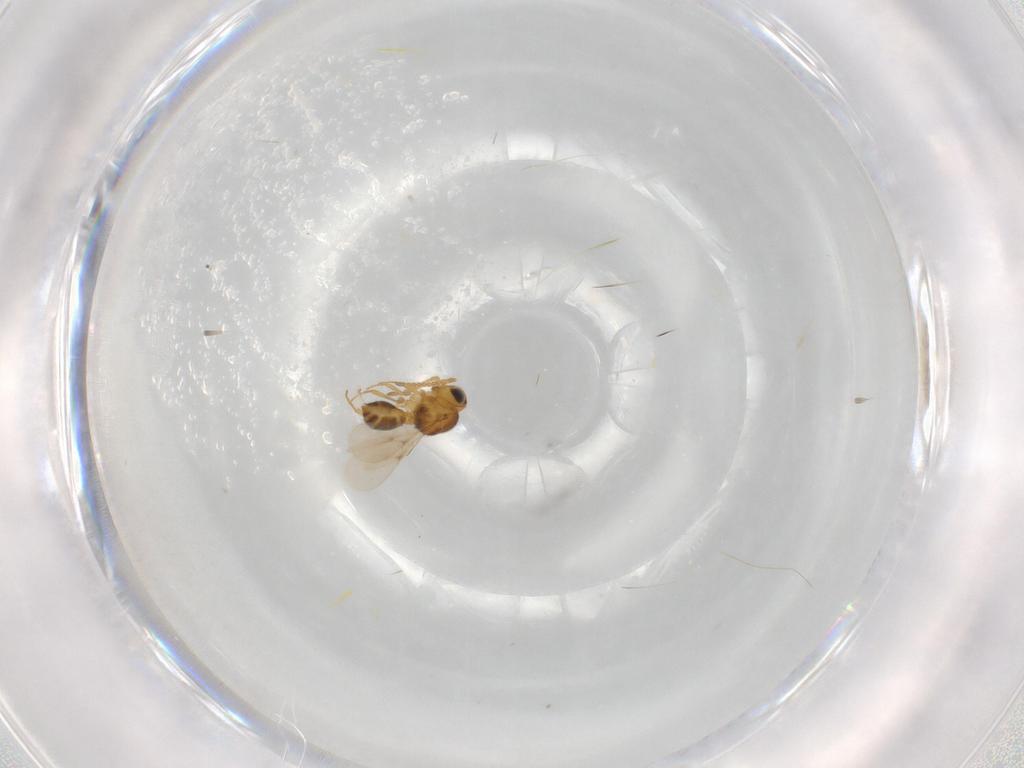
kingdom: Animalia
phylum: Arthropoda
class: Insecta
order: Hymenoptera
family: Scelionidae
